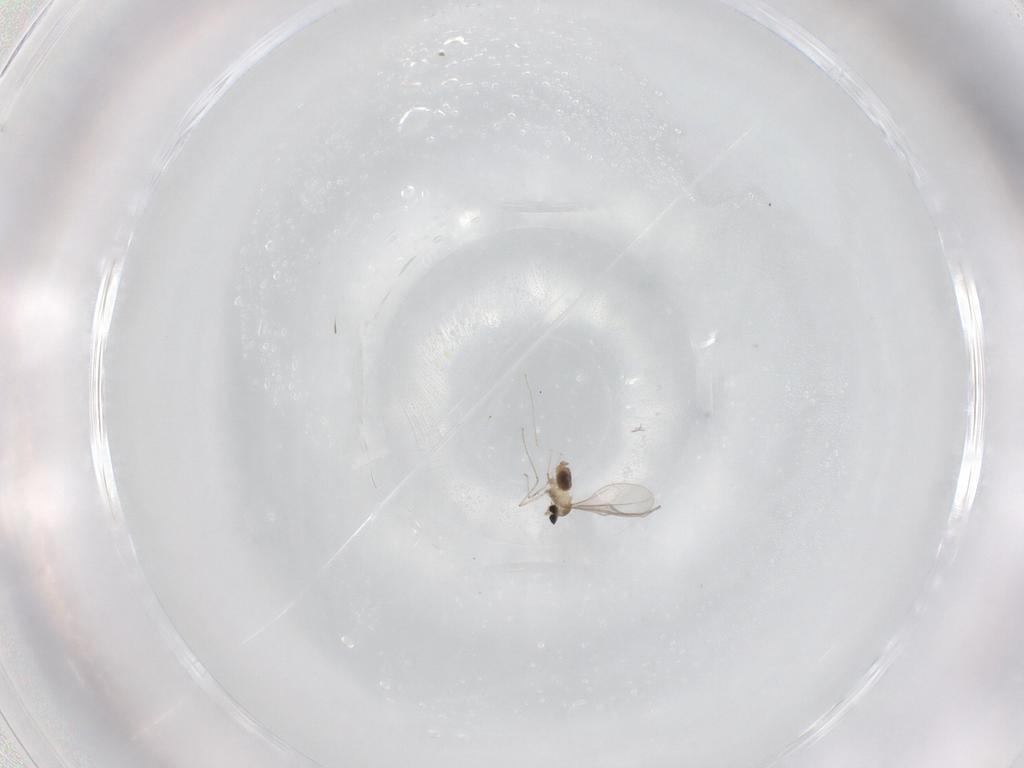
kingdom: Animalia
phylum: Arthropoda
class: Insecta
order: Diptera
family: Cecidomyiidae
